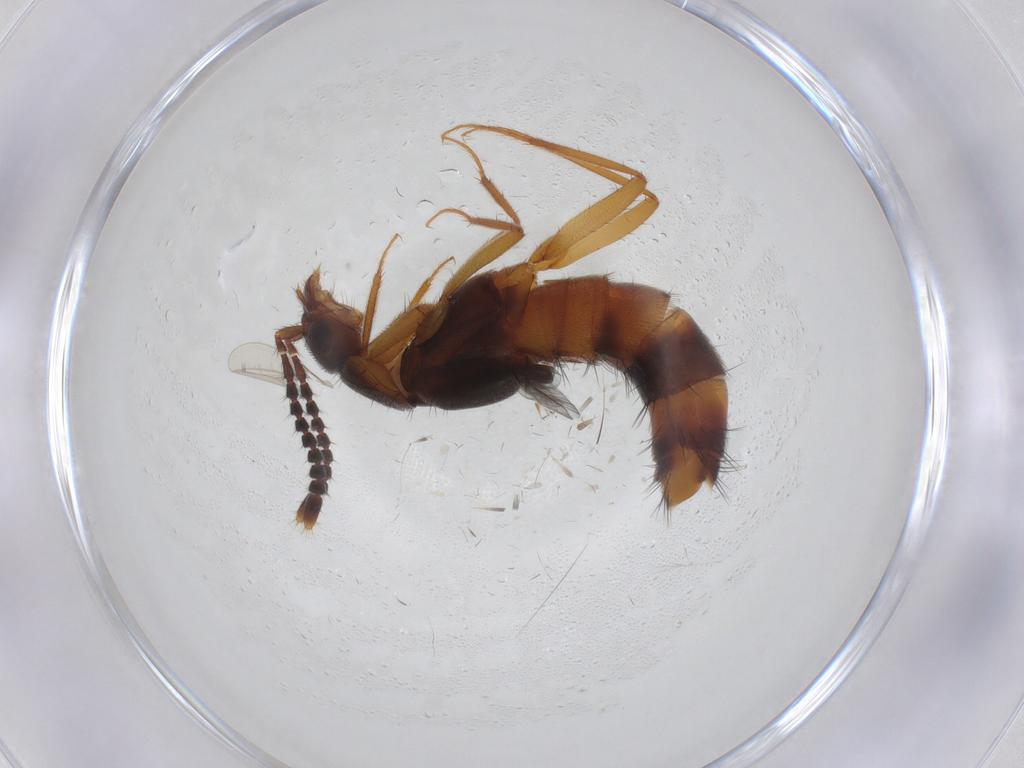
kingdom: Animalia
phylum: Arthropoda
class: Insecta
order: Coleoptera
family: Staphylinidae
